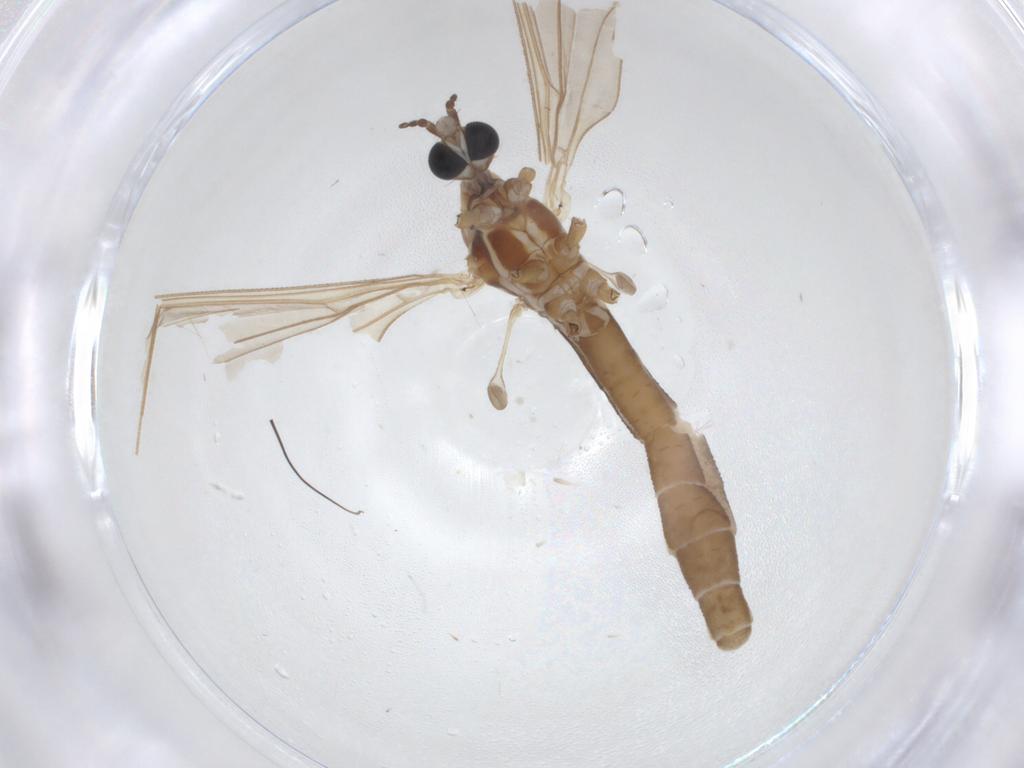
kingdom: Animalia
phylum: Arthropoda
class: Insecta
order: Diptera
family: Limoniidae
